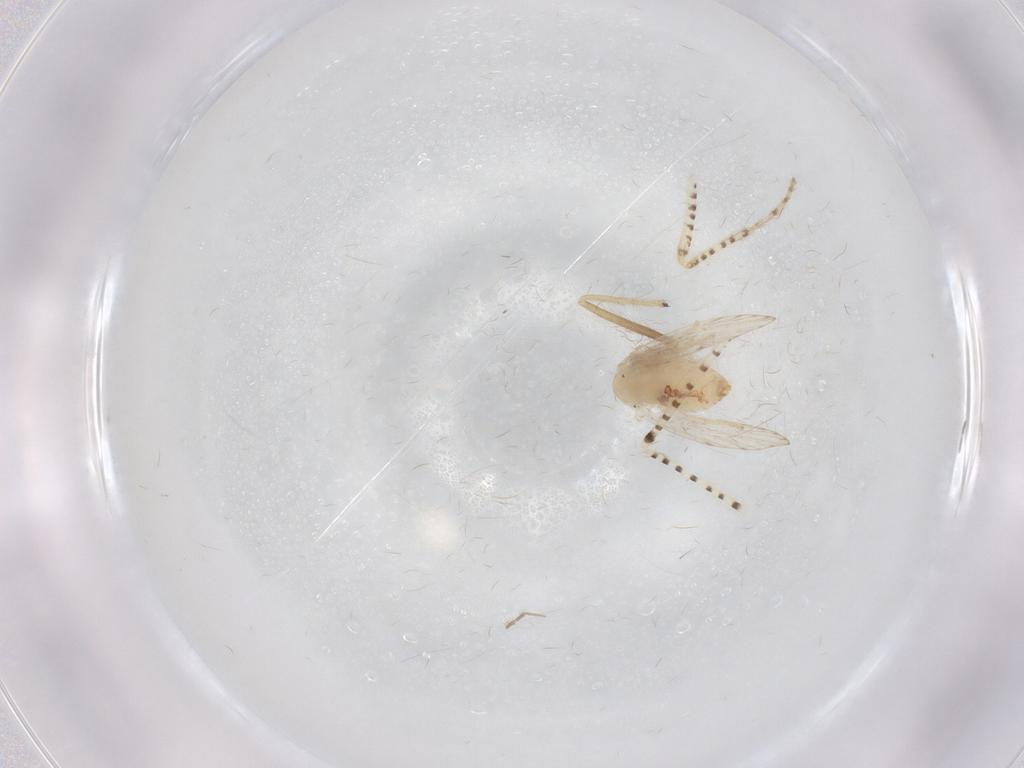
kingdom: Animalia
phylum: Arthropoda
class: Insecta
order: Diptera
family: Psychodidae
